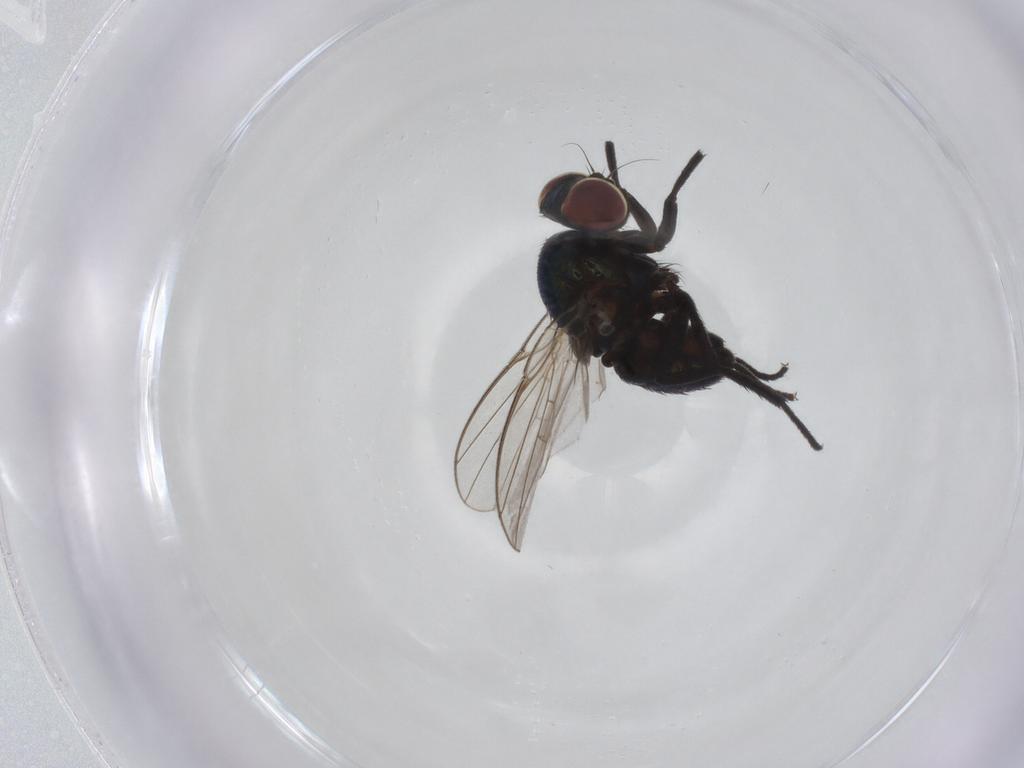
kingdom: Animalia
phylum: Arthropoda
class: Insecta
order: Diptera
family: Agromyzidae
